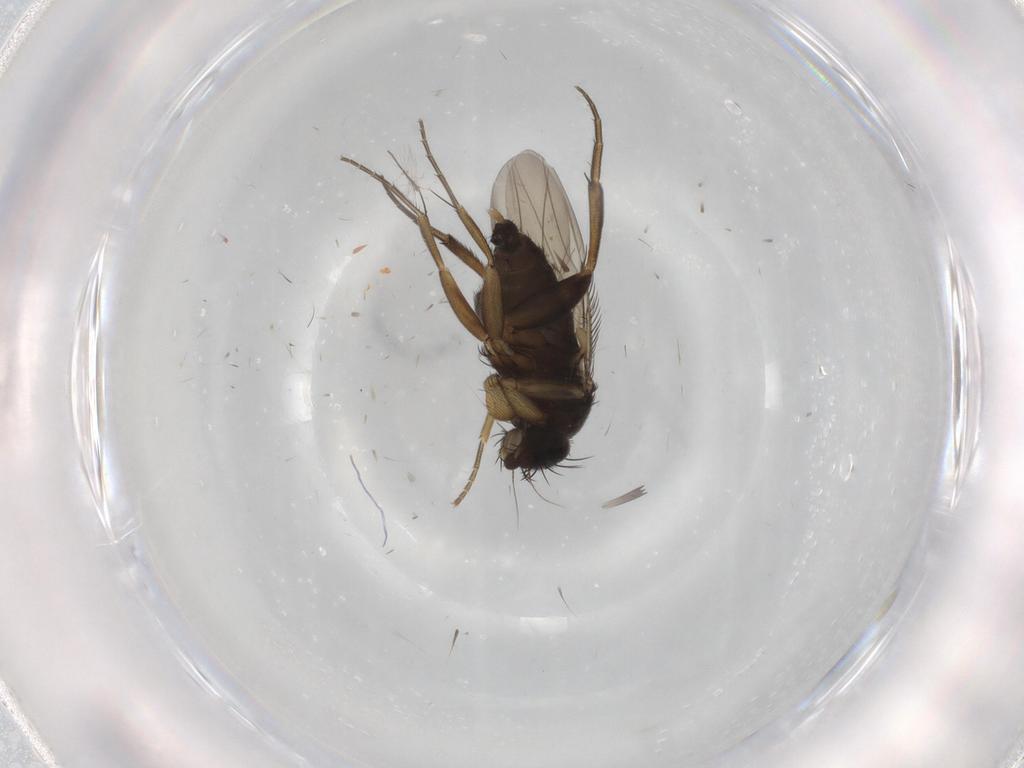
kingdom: Animalia
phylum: Arthropoda
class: Insecta
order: Diptera
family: Phoridae
